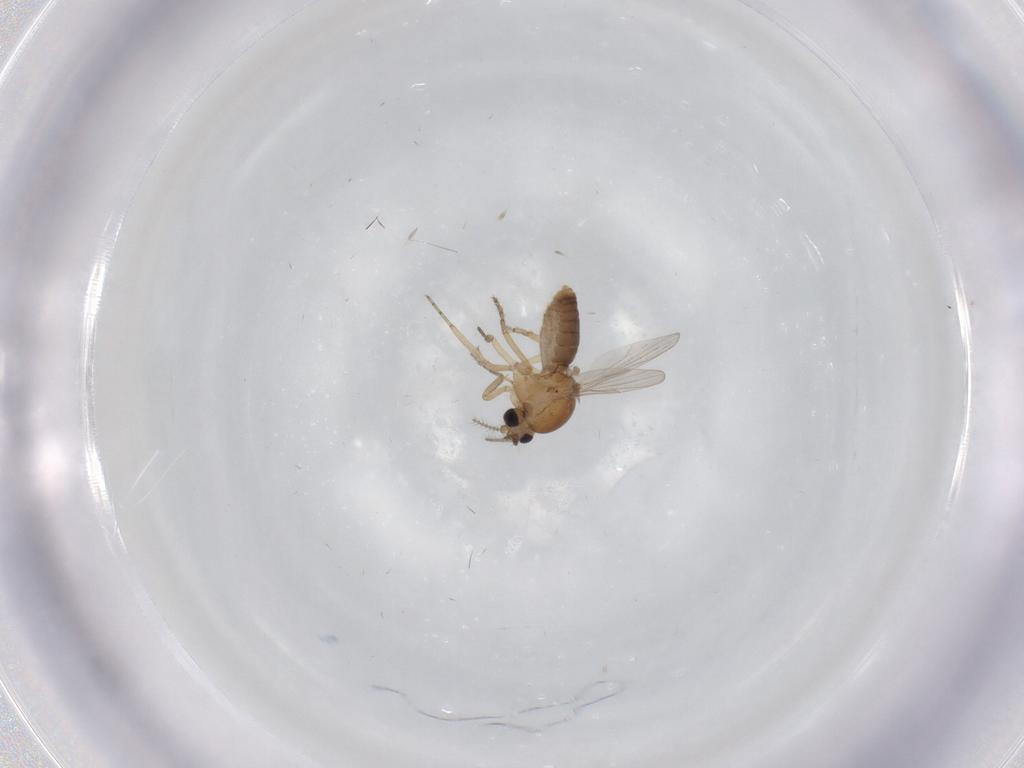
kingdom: Animalia
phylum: Arthropoda
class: Insecta
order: Diptera
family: Psychodidae
